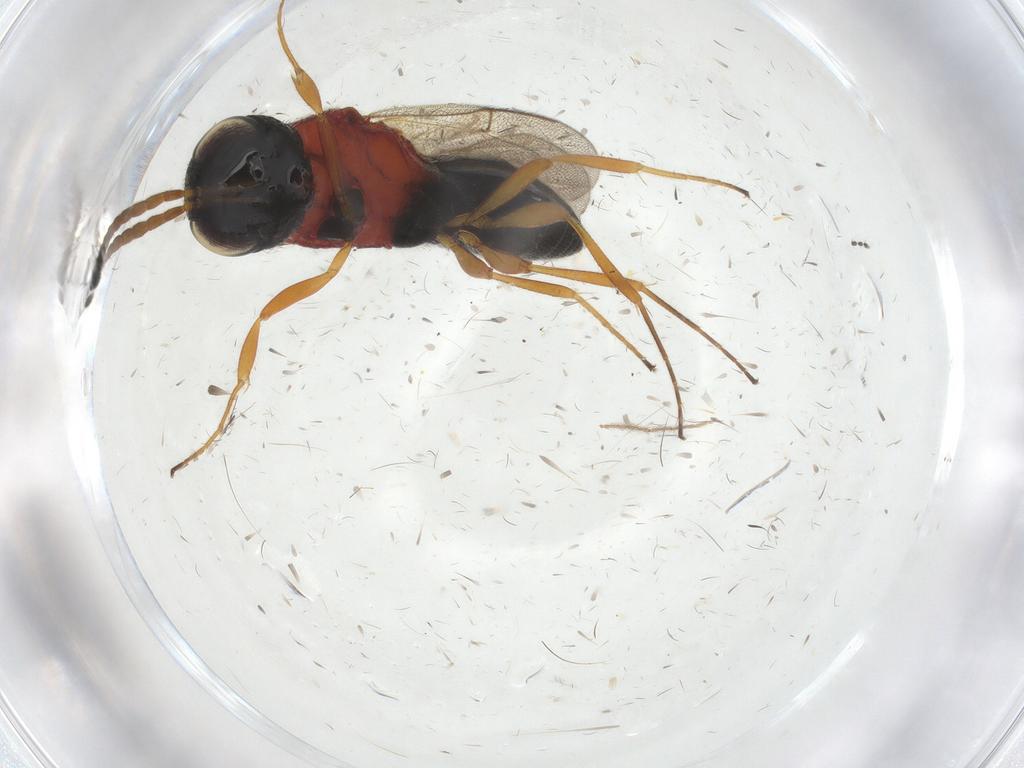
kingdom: Animalia
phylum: Arthropoda
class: Insecta
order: Hymenoptera
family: Scelionidae
